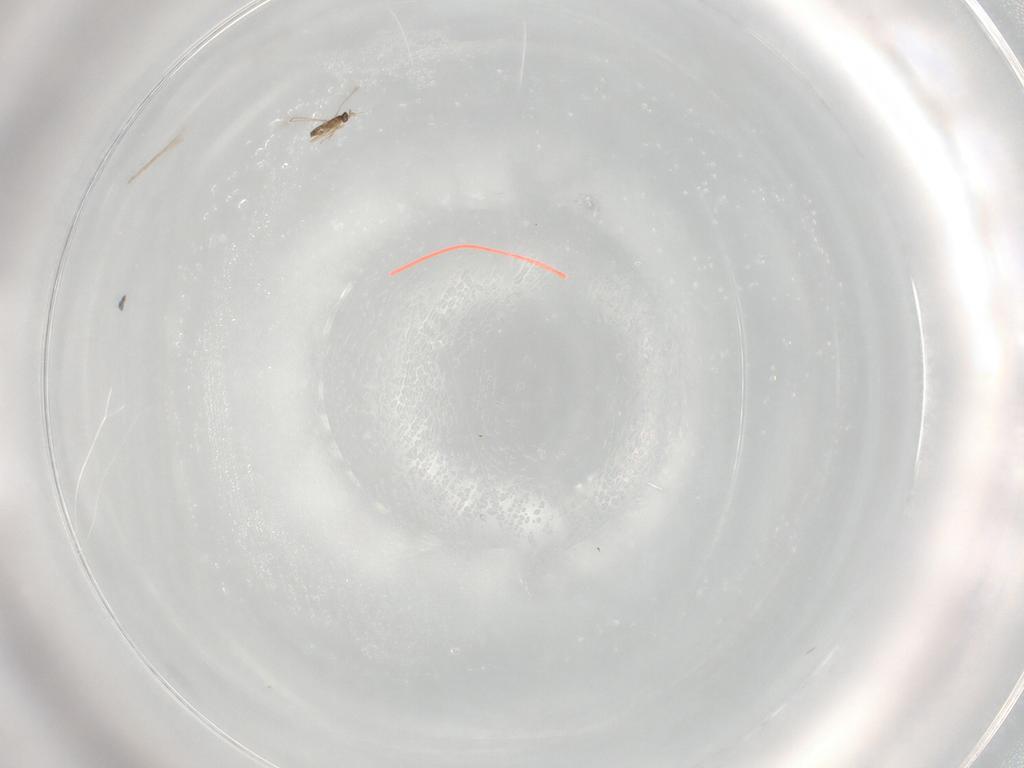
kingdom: Animalia
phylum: Arthropoda
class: Insecta
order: Hymenoptera
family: Mymaridae
